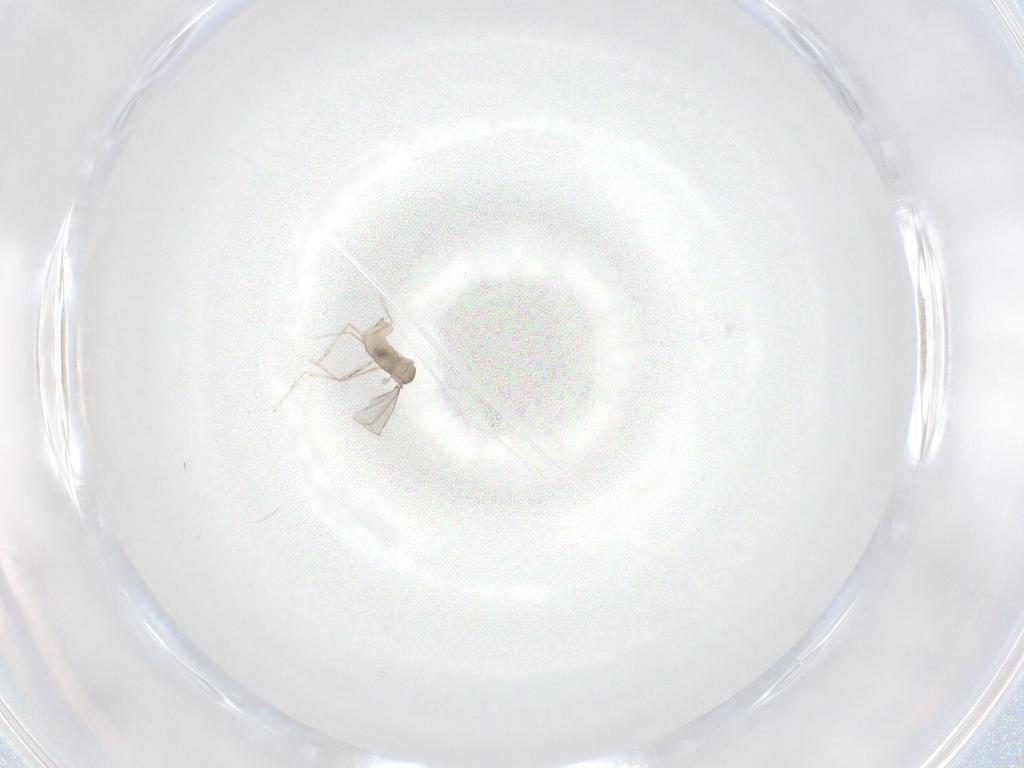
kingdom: Animalia
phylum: Arthropoda
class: Insecta
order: Diptera
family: Cecidomyiidae
